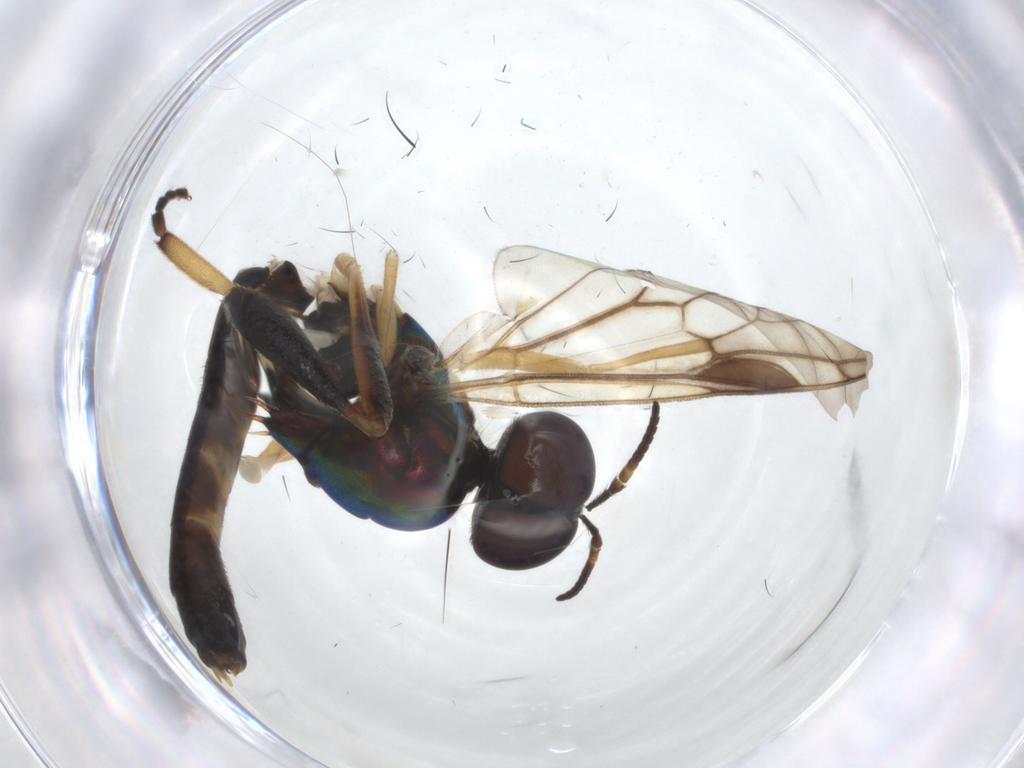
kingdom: Animalia
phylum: Arthropoda
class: Insecta
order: Diptera
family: Stratiomyidae
